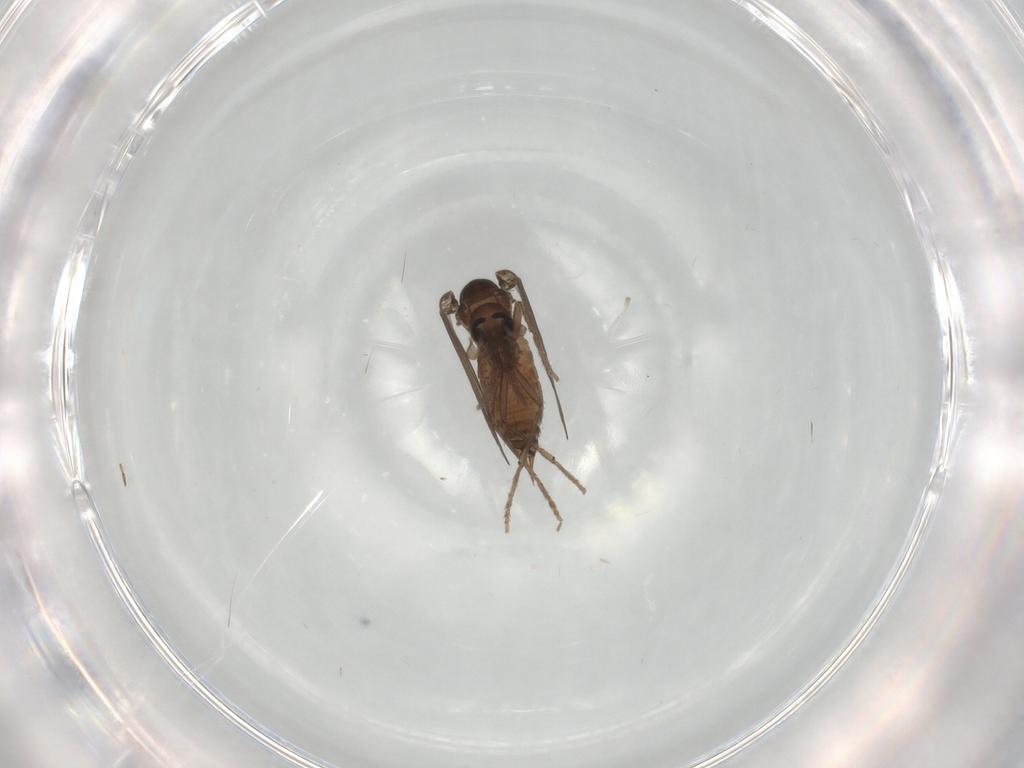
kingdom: Animalia
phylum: Arthropoda
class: Insecta
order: Diptera
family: Psychodidae
